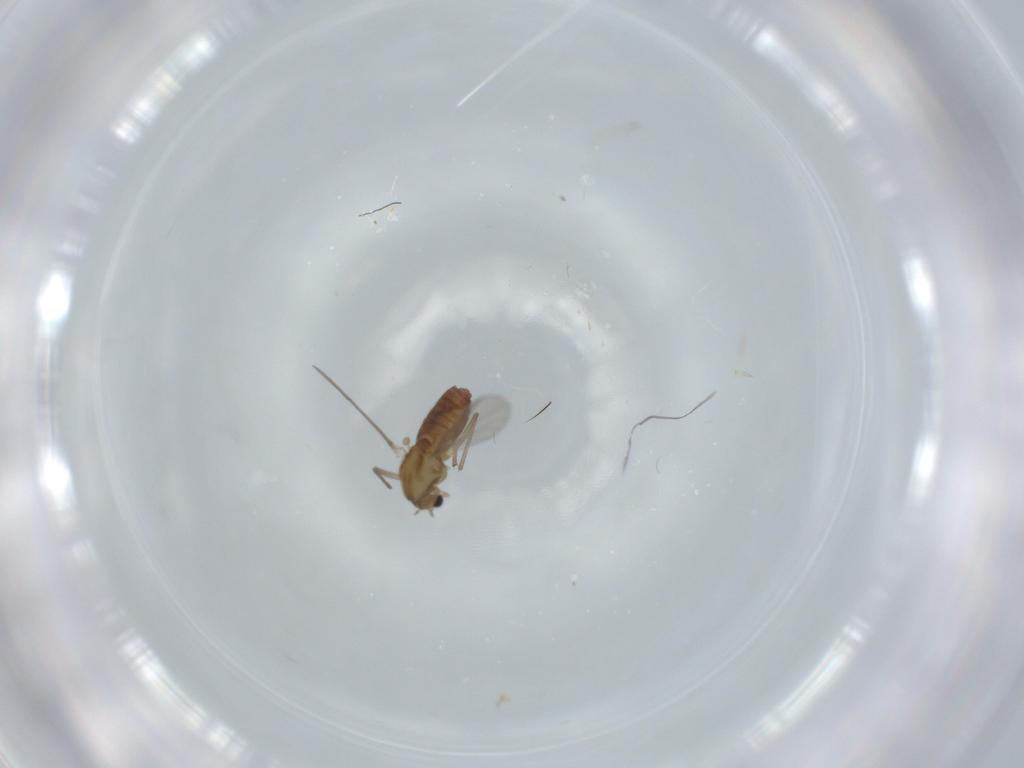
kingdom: Animalia
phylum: Arthropoda
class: Insecta
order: Diptera
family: Chironomidae
